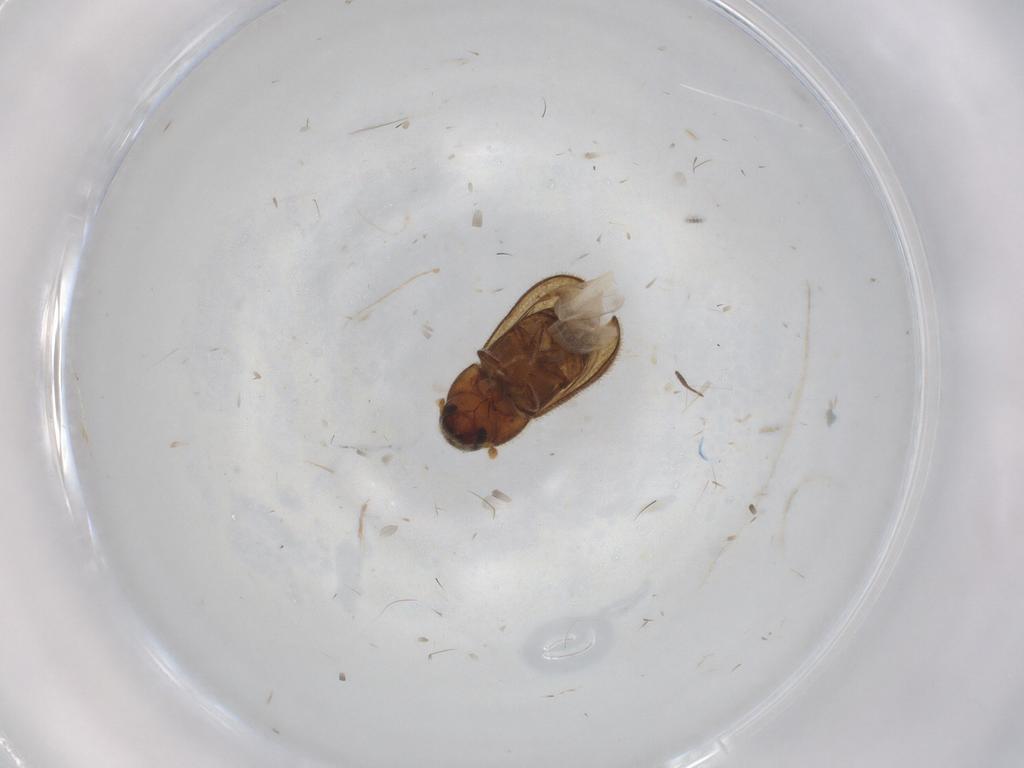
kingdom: Animalia
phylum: Arthropoda
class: Insecta
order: Coleoptera
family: Curculionidae
